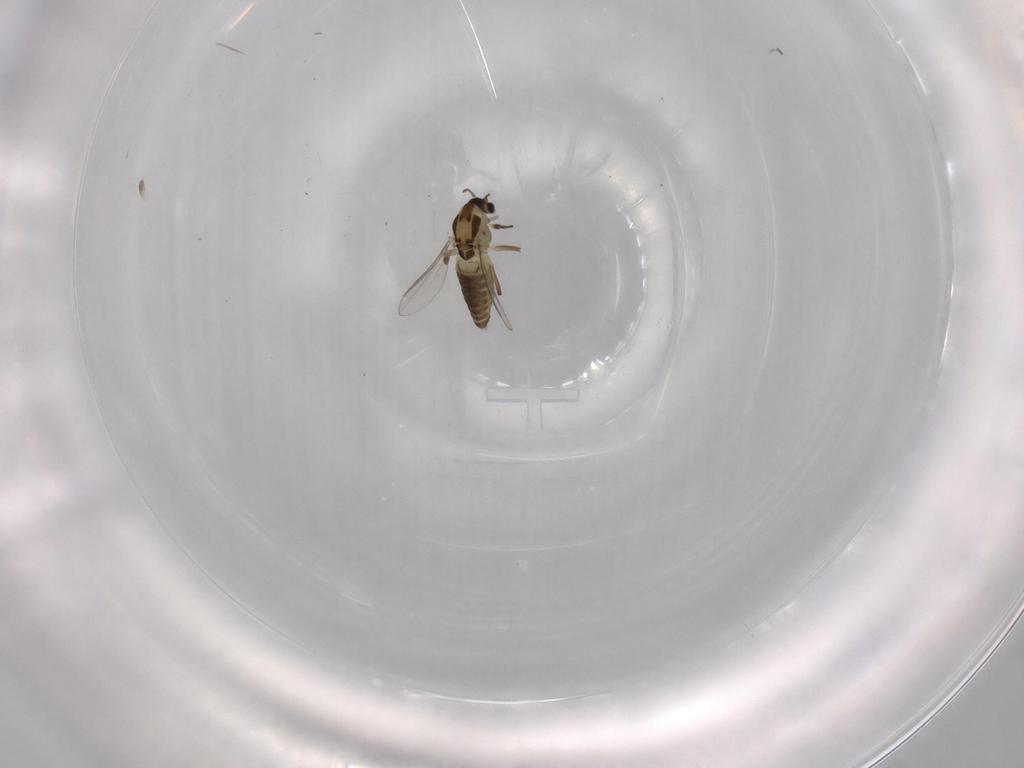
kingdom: Animalia
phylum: Arthropoda
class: Insecta
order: Diptera
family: Chironomidae
